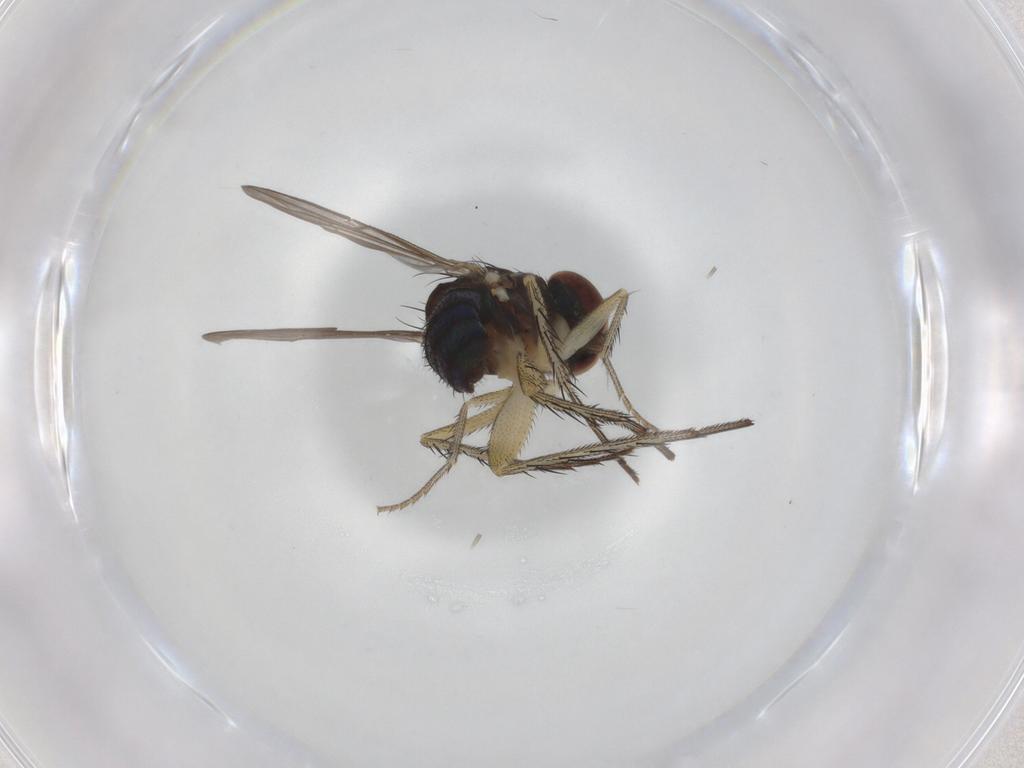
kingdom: Animalia
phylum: Arthropoda
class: Insecta
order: Diptera
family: Dolichopodidae
